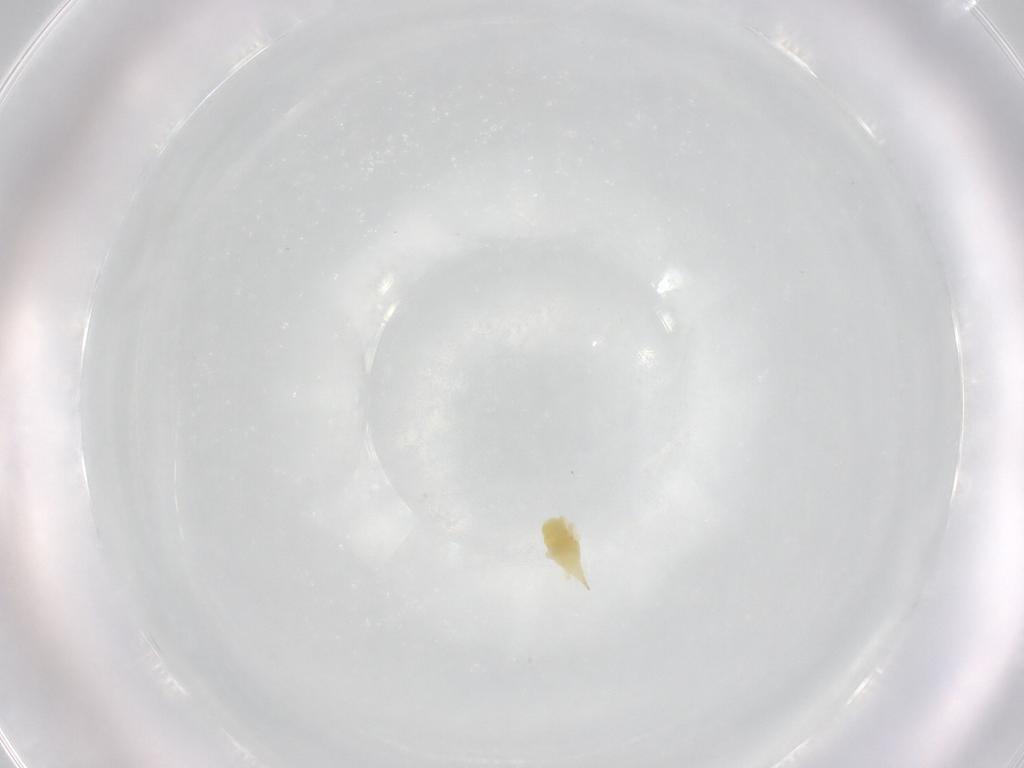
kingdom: Animalia
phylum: Arthropoda
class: Arachnida
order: Trombidiformes
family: Bdellidae
